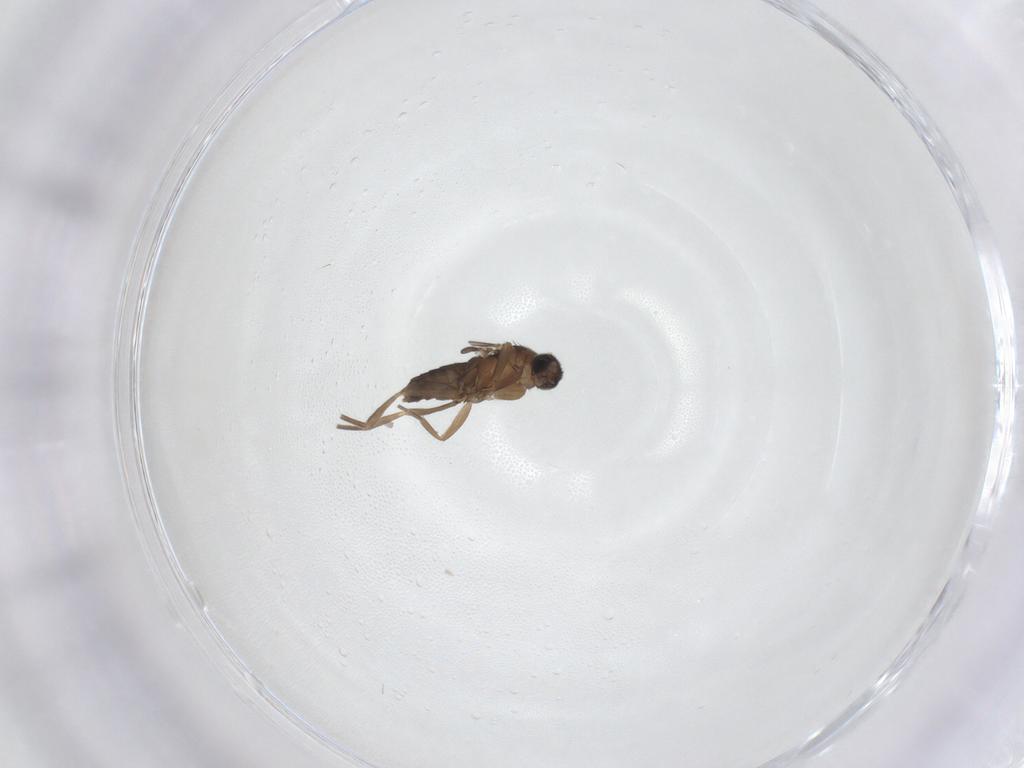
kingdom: Animalia
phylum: Arthropoda
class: Insecta
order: Diptera
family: Phoridae
